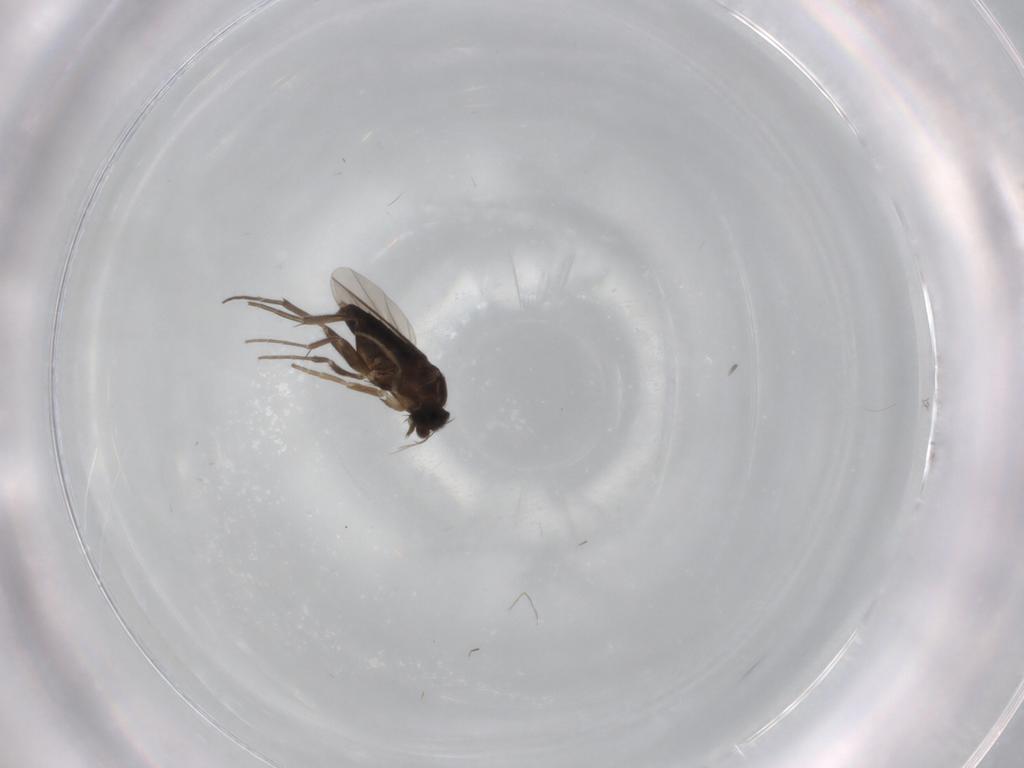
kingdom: Animalia
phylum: Arthropoda
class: Insecta
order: Diptera
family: Phoridae
